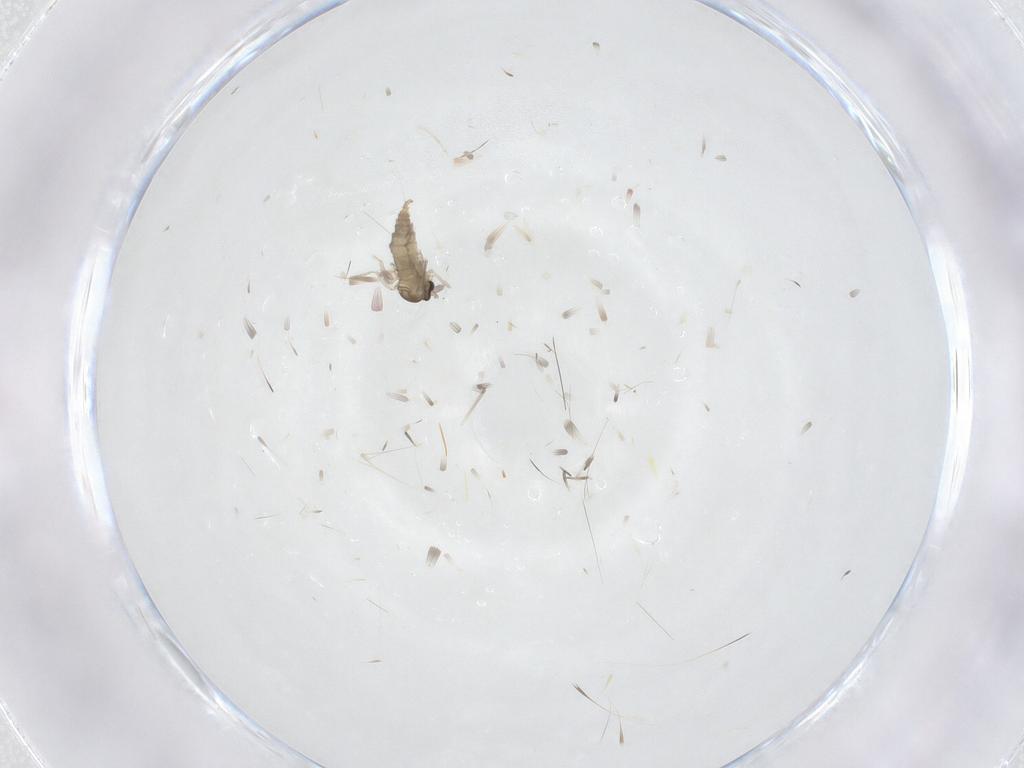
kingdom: Animalia
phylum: Arthropoda
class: Insecta
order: Diptera
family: Cecidomyiidae
